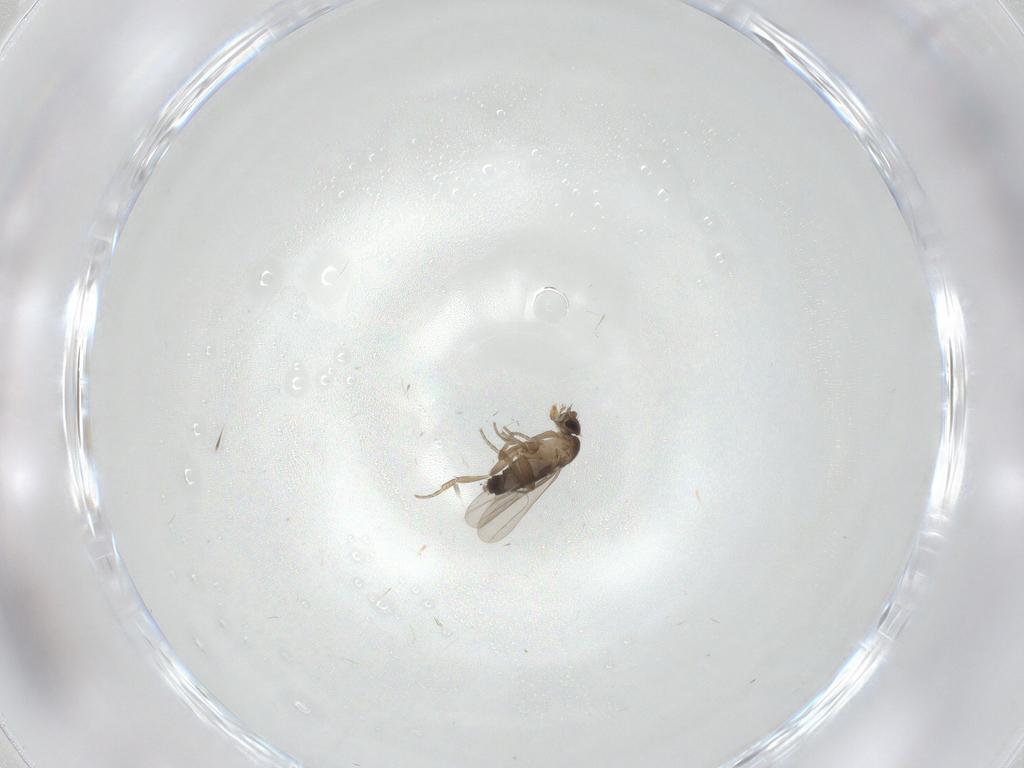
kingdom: Animalia
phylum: Arthropoda
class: Insecta
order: Diptera
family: Phoridae
